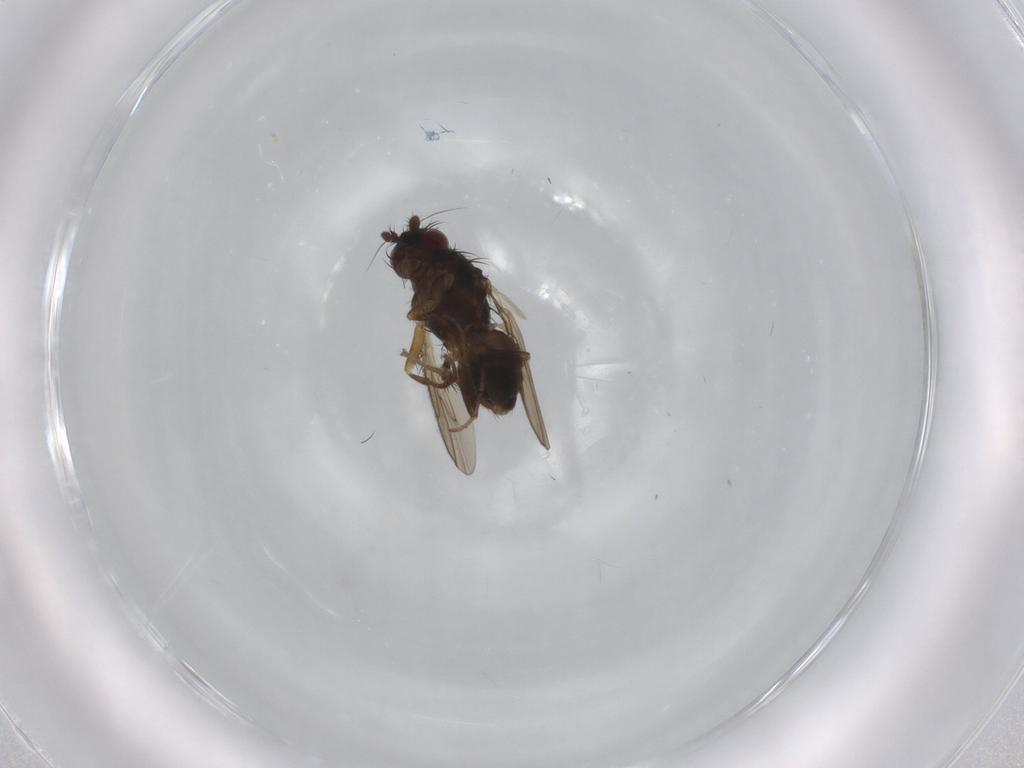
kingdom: Animalia
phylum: Arthropoda
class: Insecta
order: Diptera
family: Sphaeroceridae
